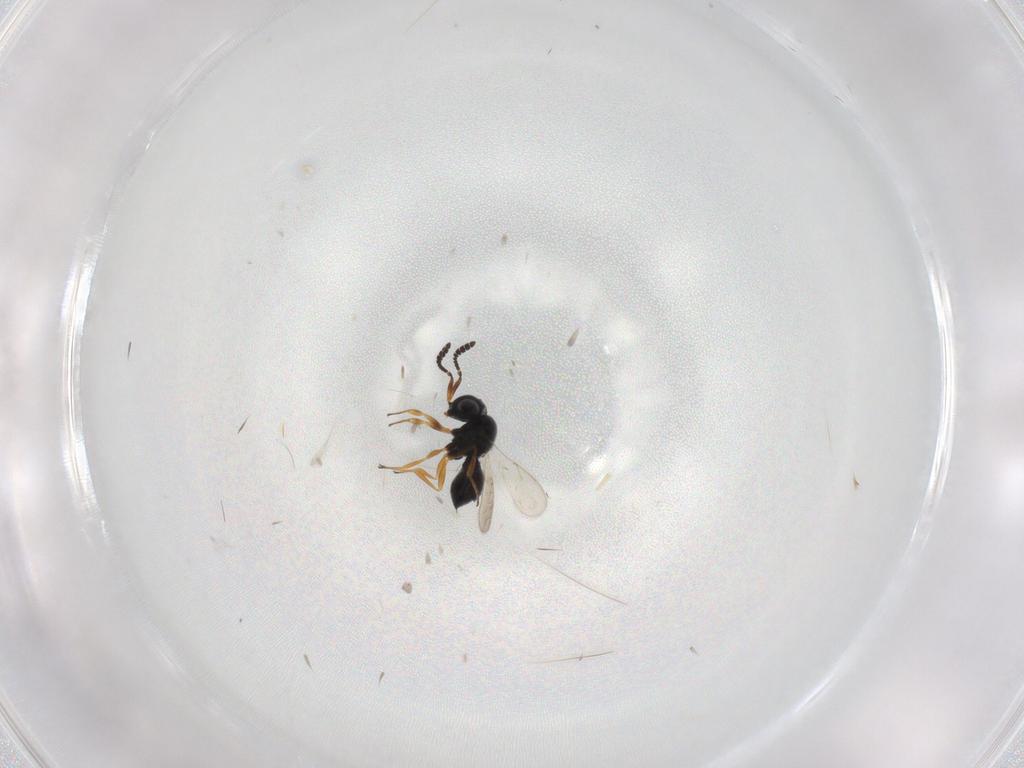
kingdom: Animalia
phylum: Arthropoda
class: Insecta
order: Hymenoptera
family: Scelionidae
